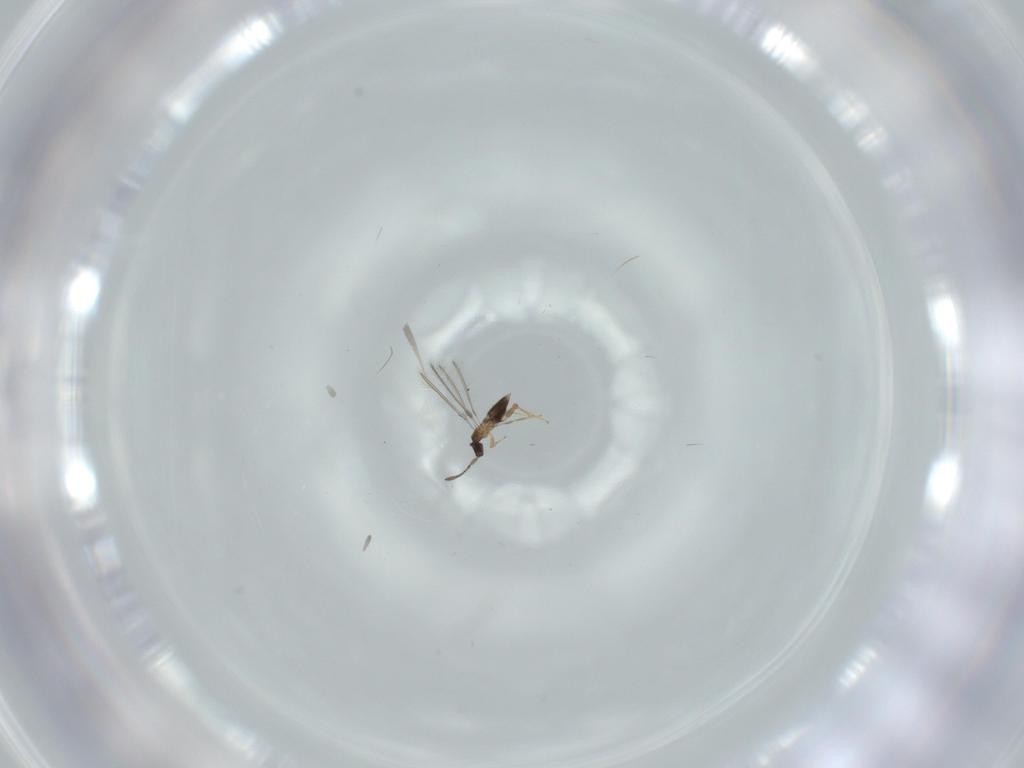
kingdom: Animalia
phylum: Arthropoda
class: Insecta
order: Hymenoptera
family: Mymaridae
